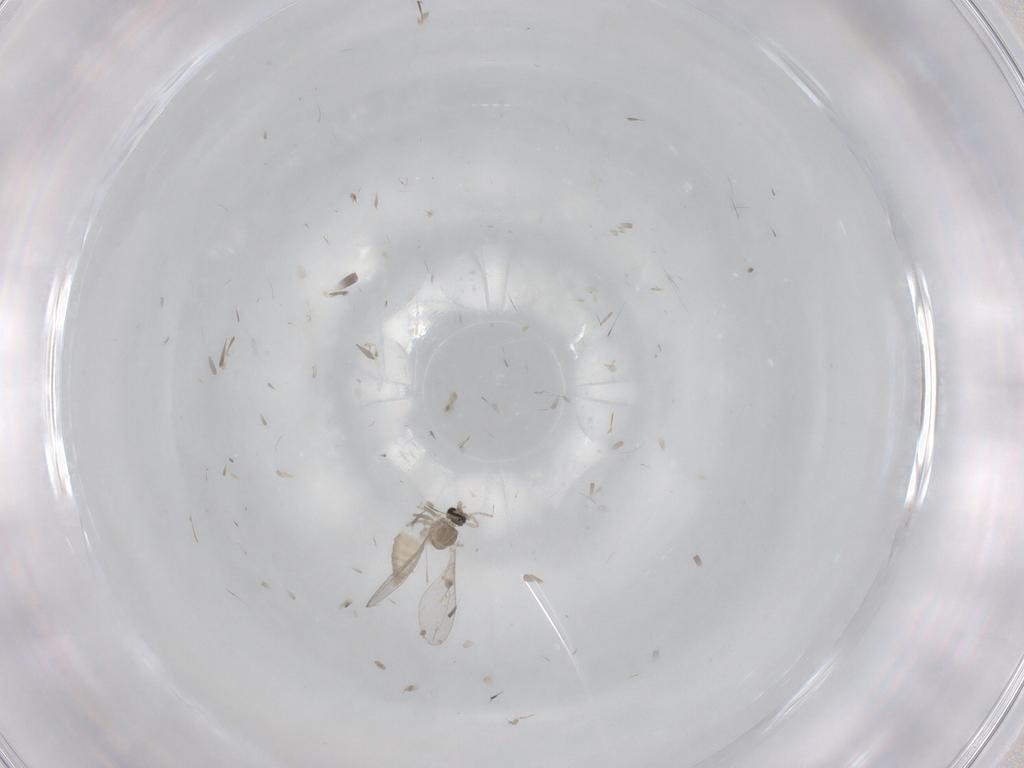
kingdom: Animalia
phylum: Arthropoda
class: Insecta
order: Diptera
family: Cecidomyiidae
